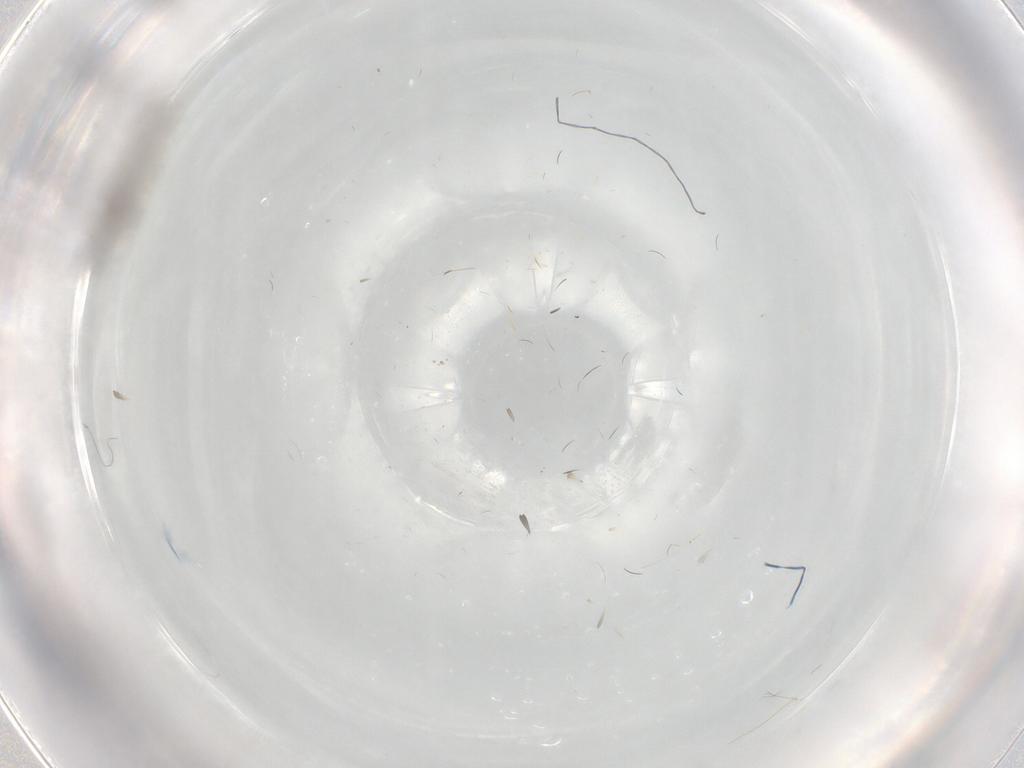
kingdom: Animalia
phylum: Arthropoda
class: Insecta
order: Diptera
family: Phoridae
